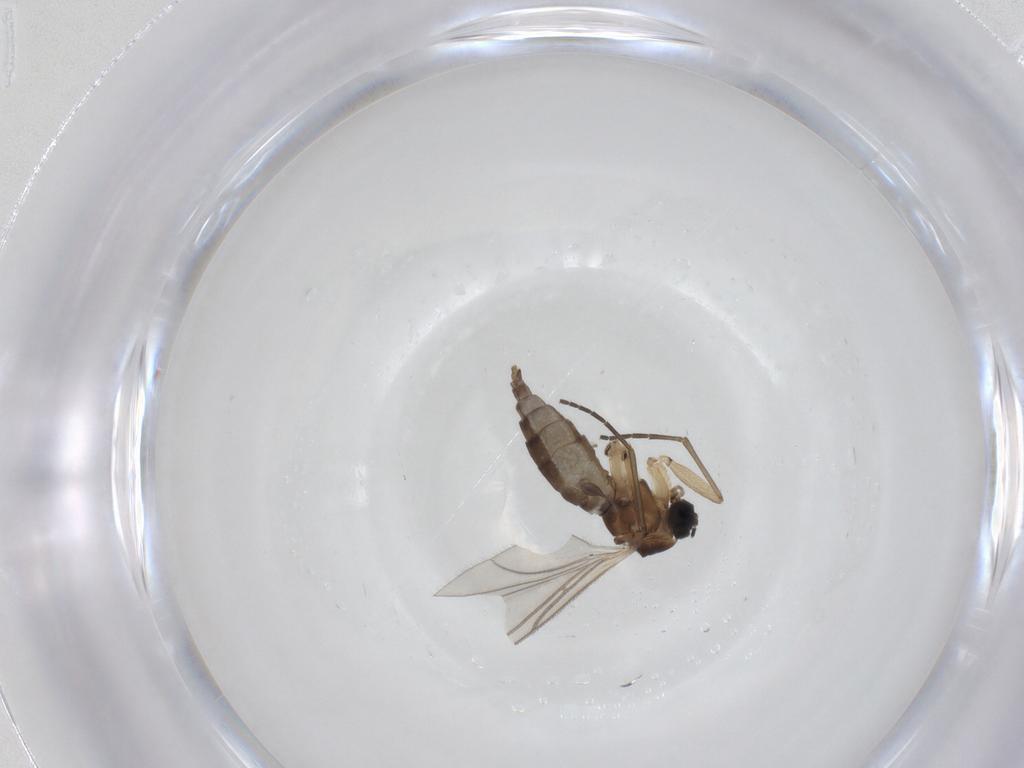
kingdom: Animalia
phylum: Arthropoda
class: Insecta
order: Diptera
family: Sciaridae
